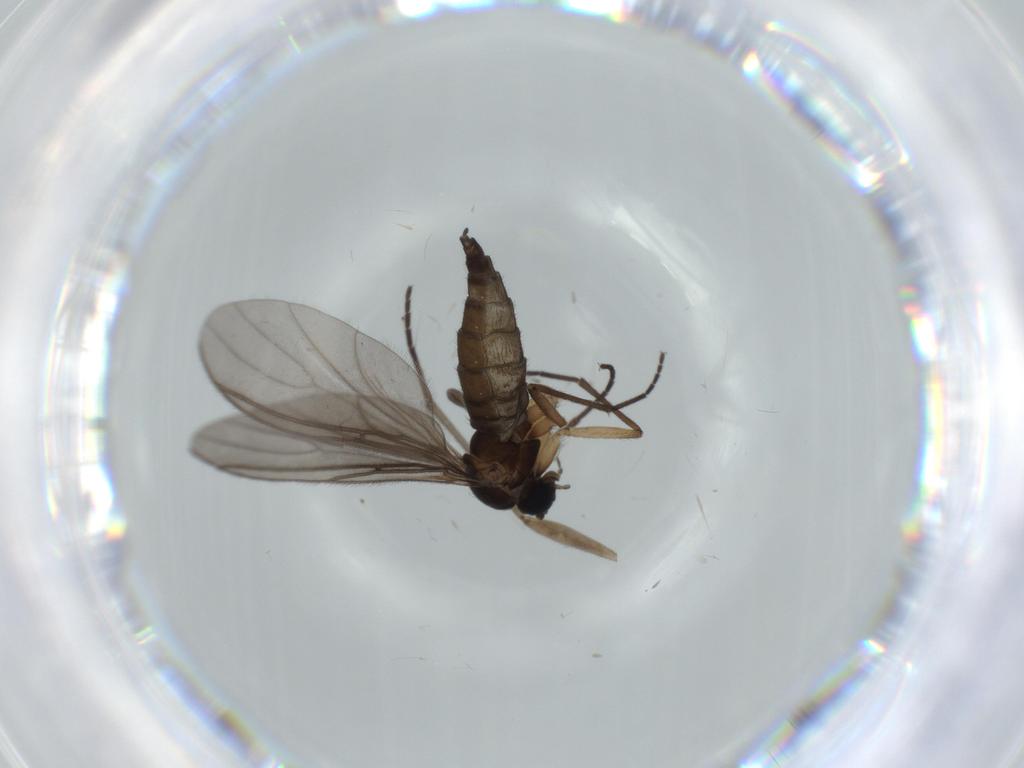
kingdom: Animalia
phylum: Arthropoda
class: Insecta
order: Diptera
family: Sciaridae
